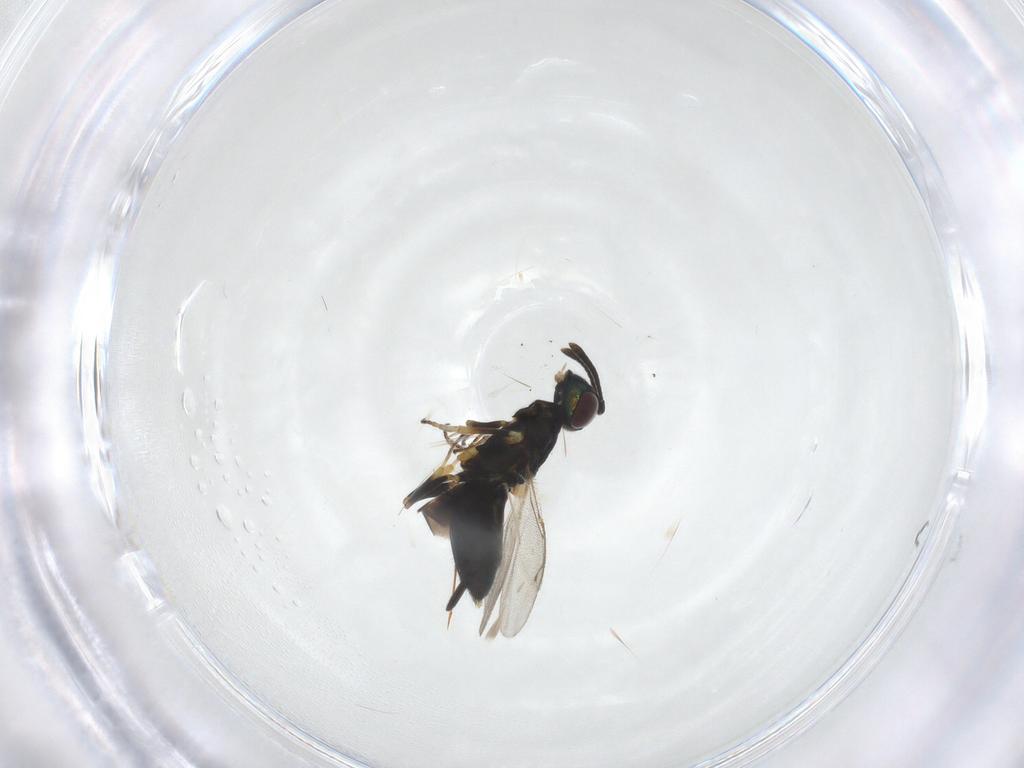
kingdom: Animalia
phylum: Arthropoda
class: Insecta
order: Hymenoptera
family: Eupelmidae
